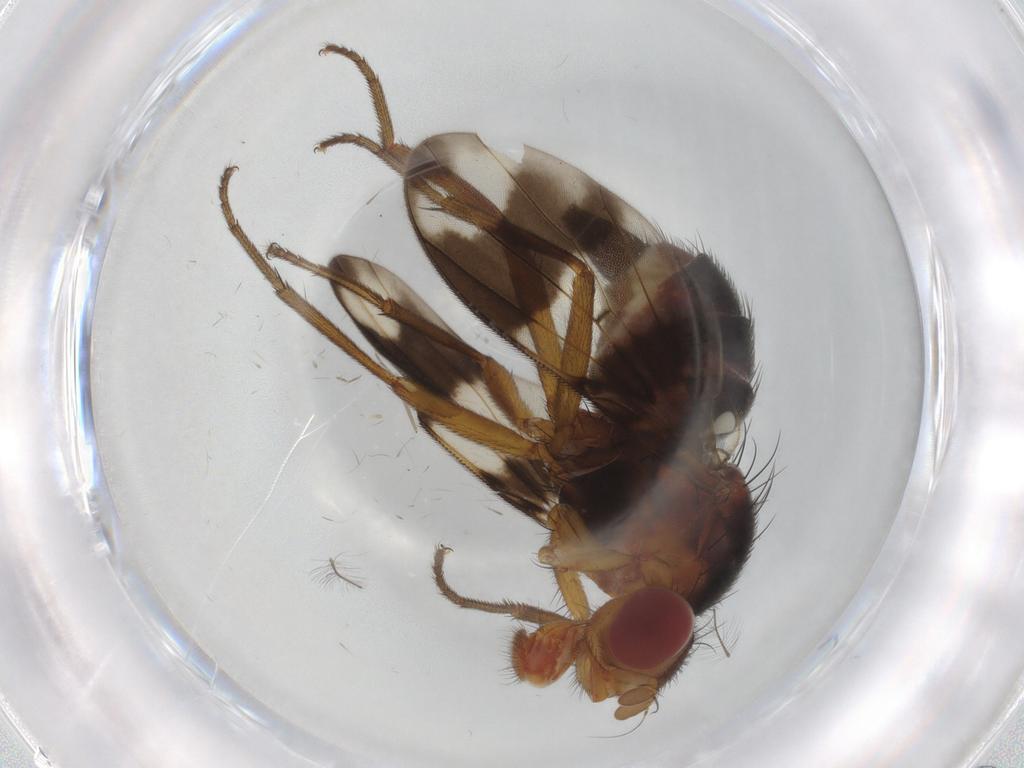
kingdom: Animalia
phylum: Arthropoda
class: Insecta
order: Diptera
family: Richardiidae
